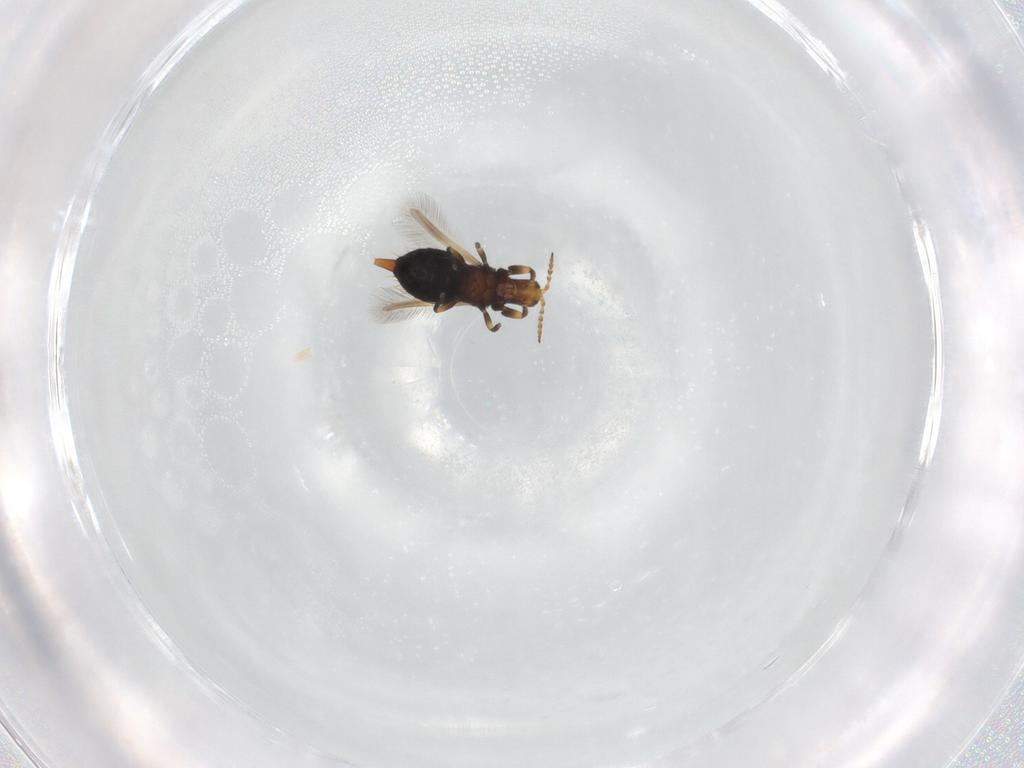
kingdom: Animalia
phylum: Arthropoda
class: Insecta
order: Thysanoptera
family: Phlaeothripidae
